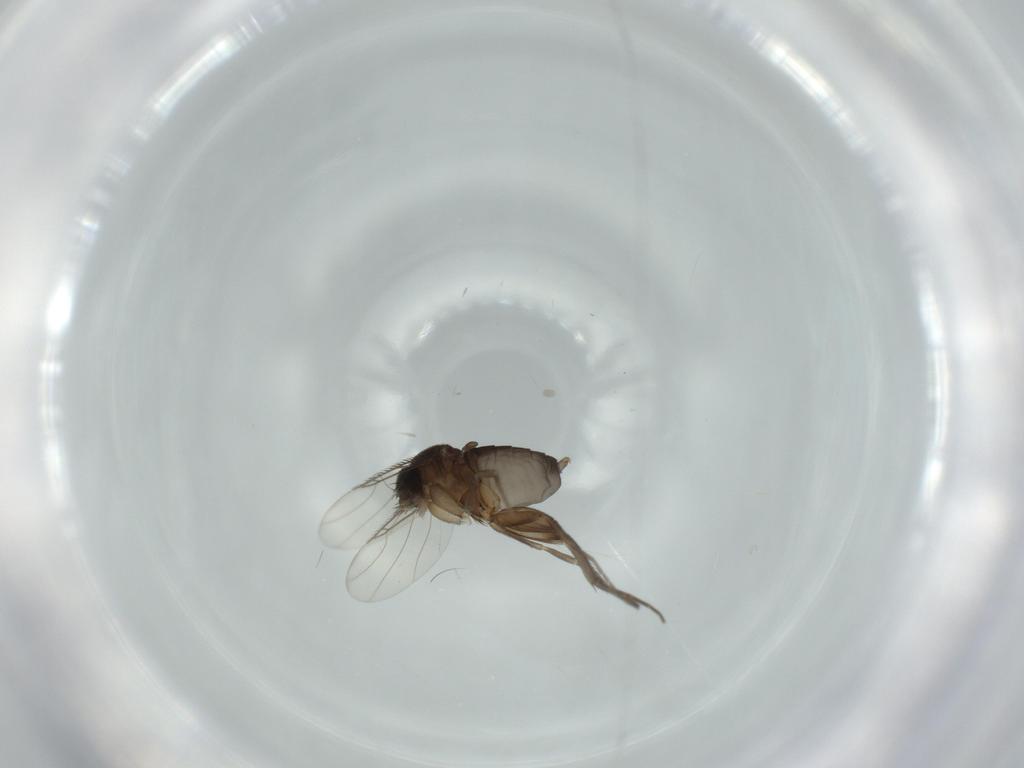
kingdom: Animalia
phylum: Arthropoda
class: Insecta
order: Diptera
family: Phoridae
